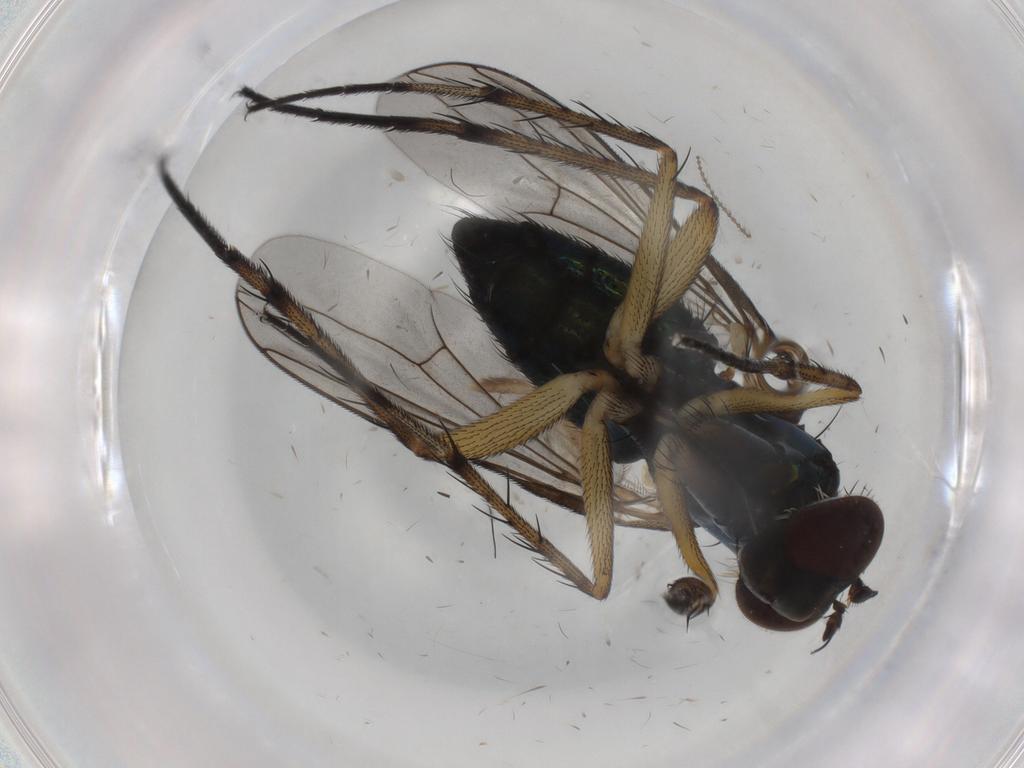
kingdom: Animalia
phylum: Arthropoda
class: Insecta
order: Diptera
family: Dolichopodidae
